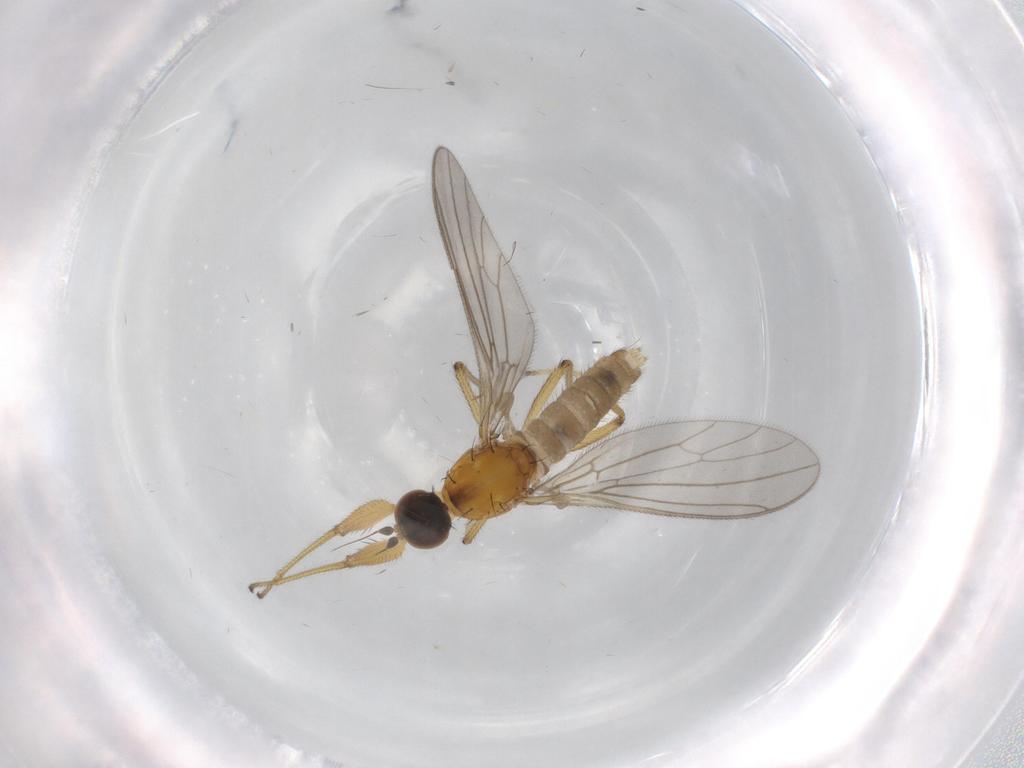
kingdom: Animalia
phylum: Arthropoda
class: Insecta
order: Diptera
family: Empididae
